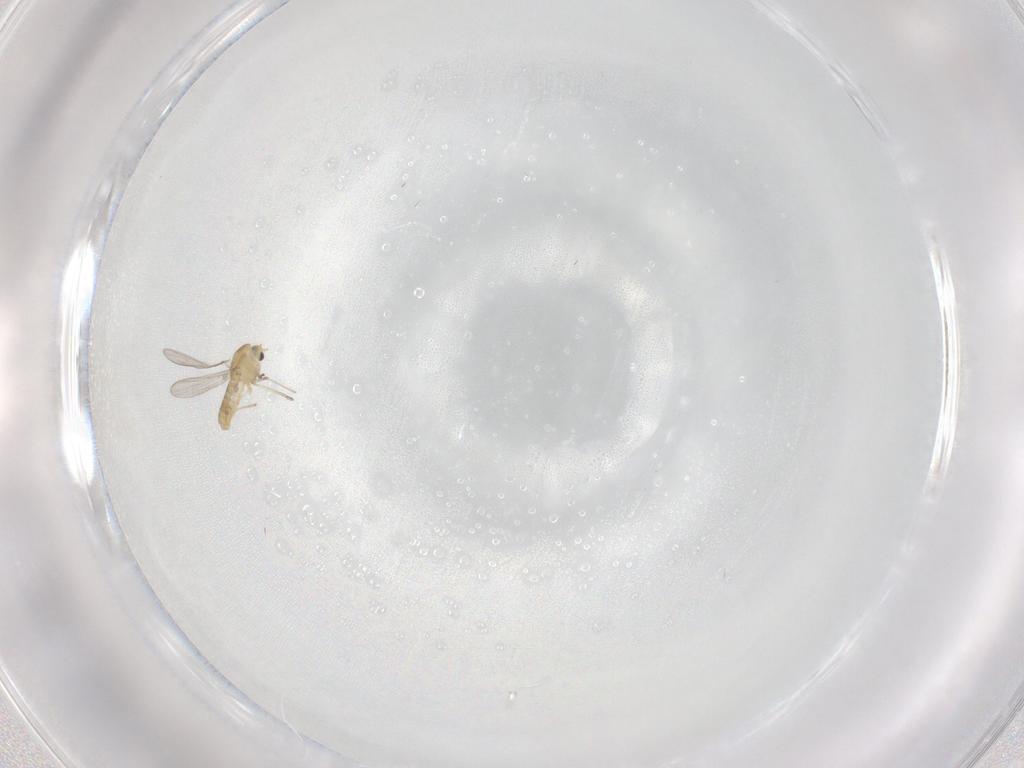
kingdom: Animalia
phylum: Arthropoda
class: Insecta
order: Diptera
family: Chironomidae
